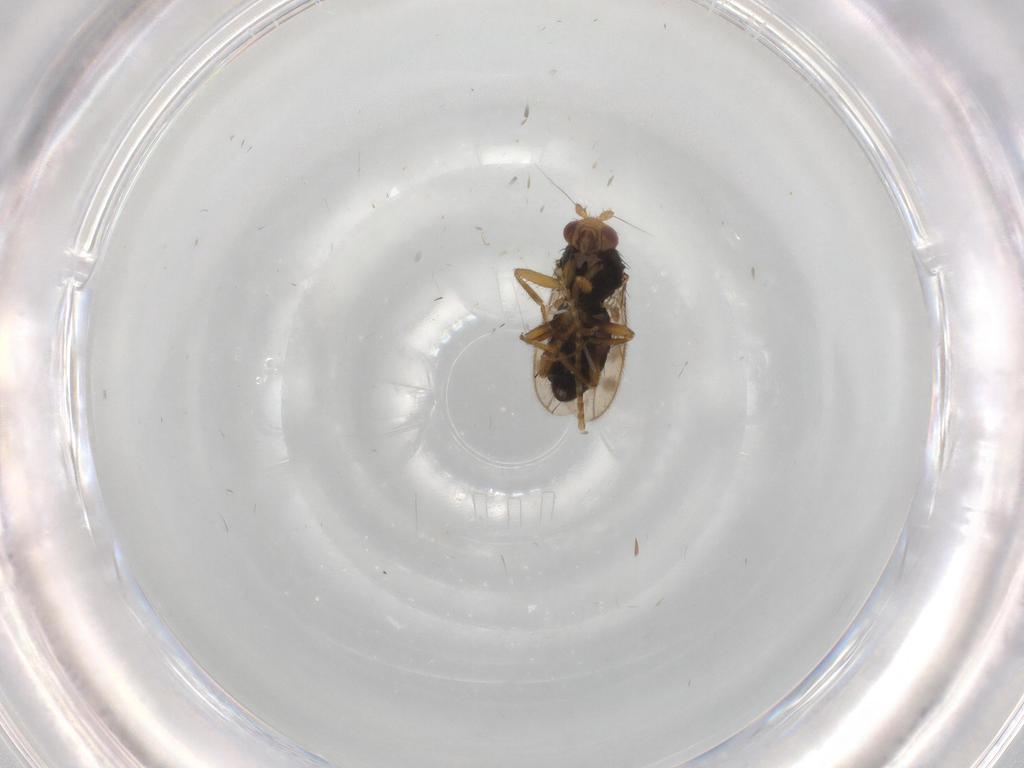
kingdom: Animalia
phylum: Arthropoda
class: Insecta
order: Diptera
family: Sphaeroceridae
